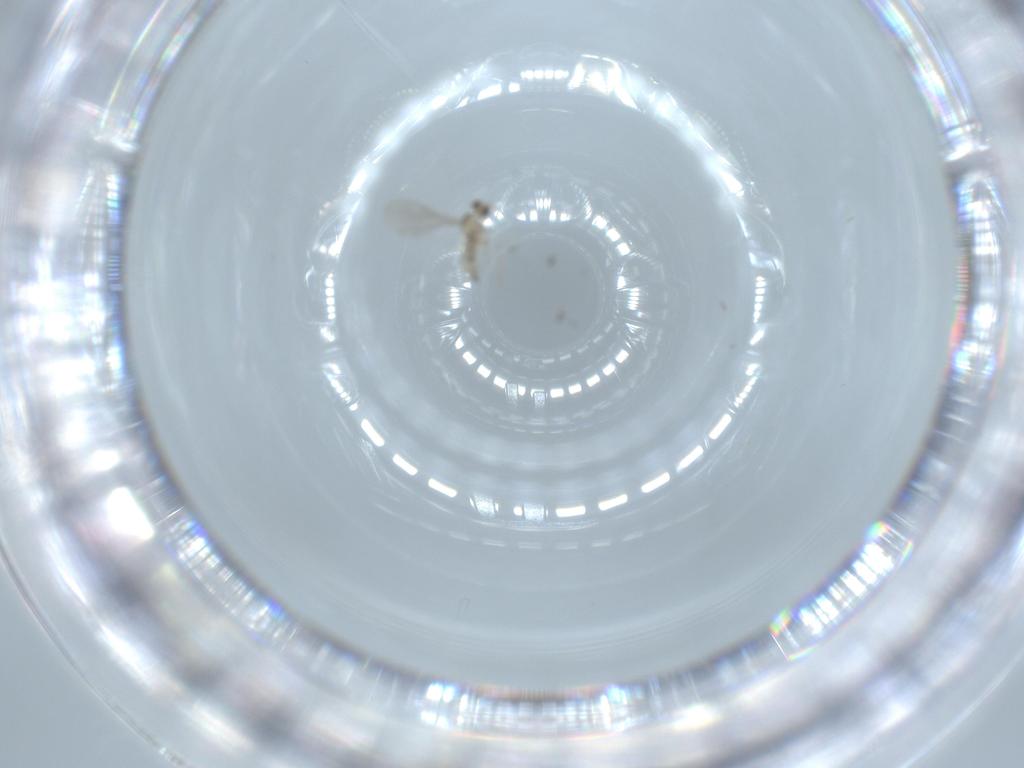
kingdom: Animalia
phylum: Arthropoda
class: Insecta
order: Diptera
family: Cecidomyiidae
